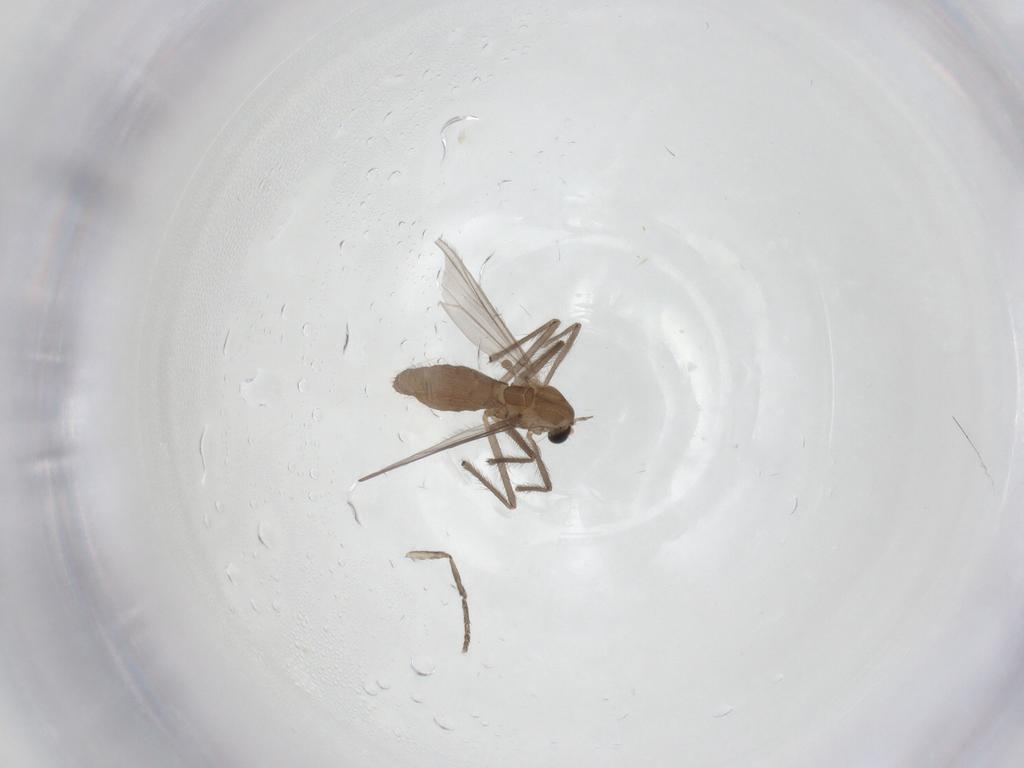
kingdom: Animalia
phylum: Arthropoda
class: Insecta
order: Diptera
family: Chironomidae
